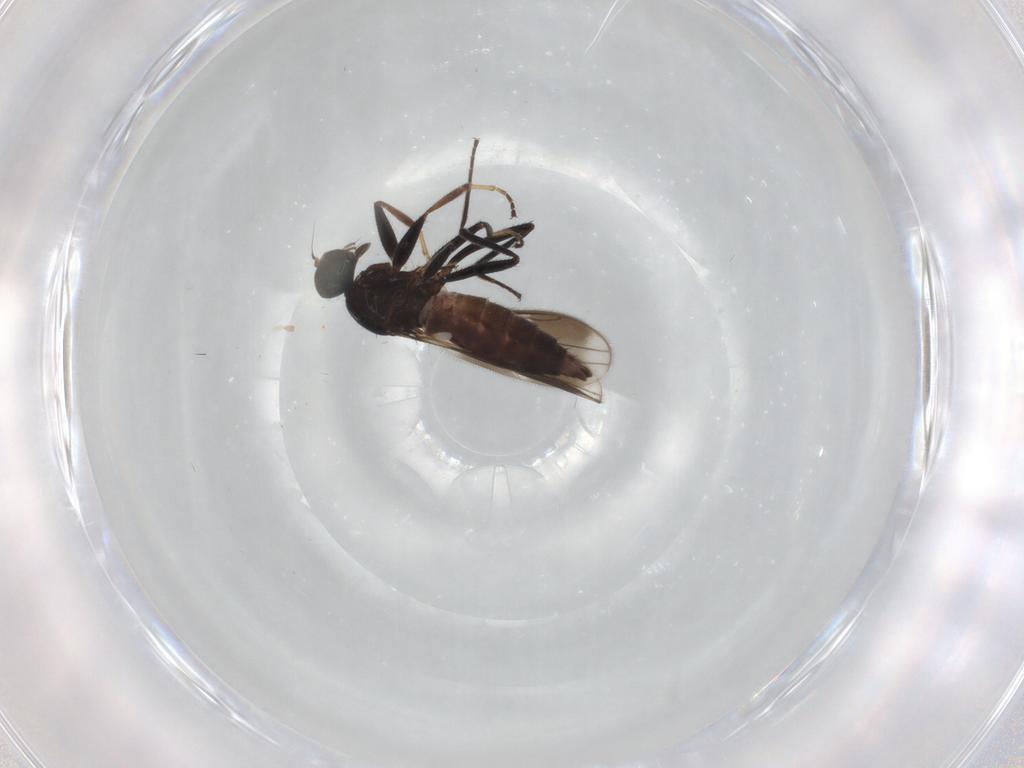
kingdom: Animalia
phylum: Arthropoda
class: Insecta
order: Diptera
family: Hybotidae
